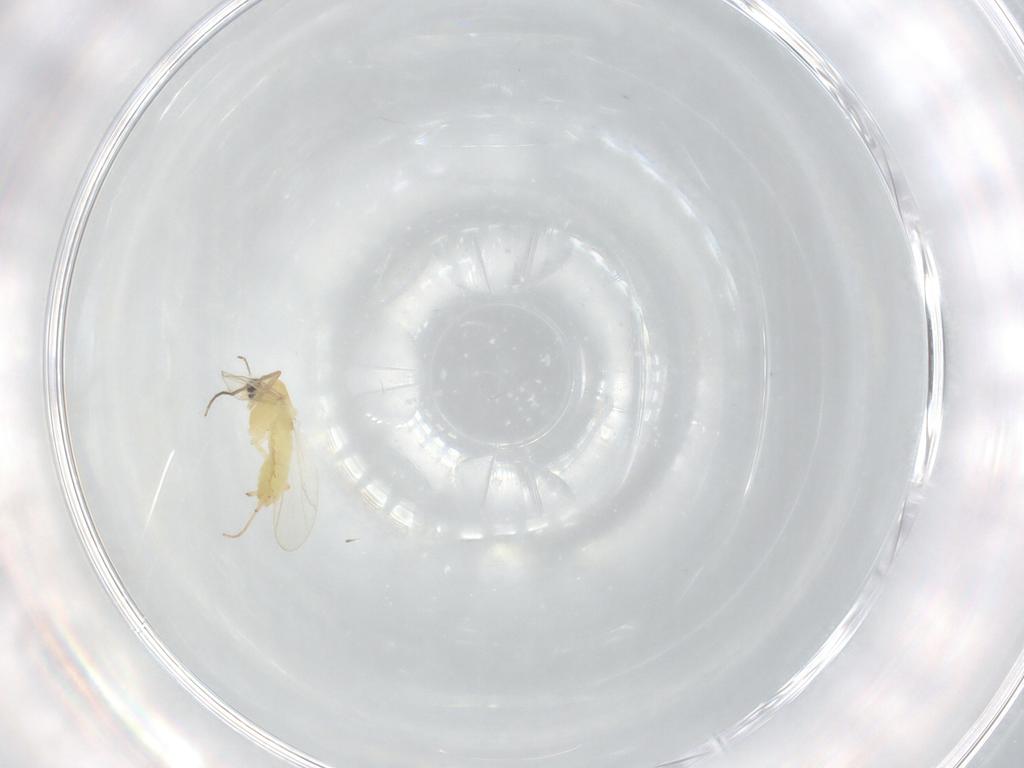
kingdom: Animalia
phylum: Arthropoda
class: Insecta
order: Diptera
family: Chironomidae
